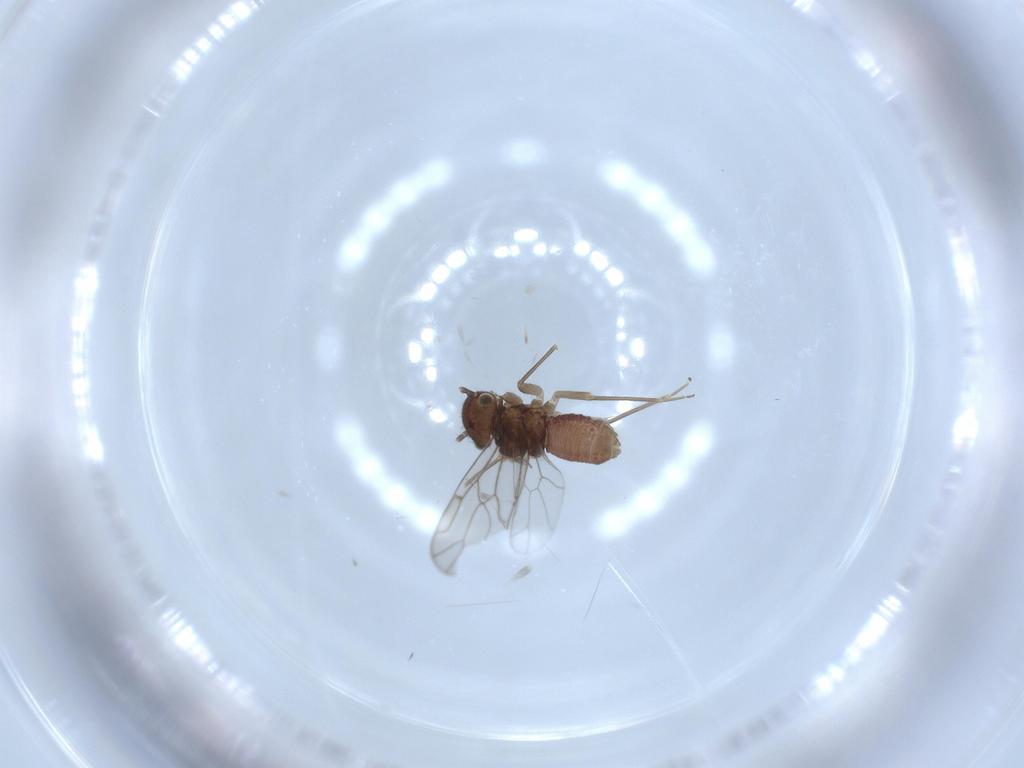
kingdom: Animalia
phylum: Arthropoda
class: Insecta
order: Psocodea
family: Ectopsocidae
